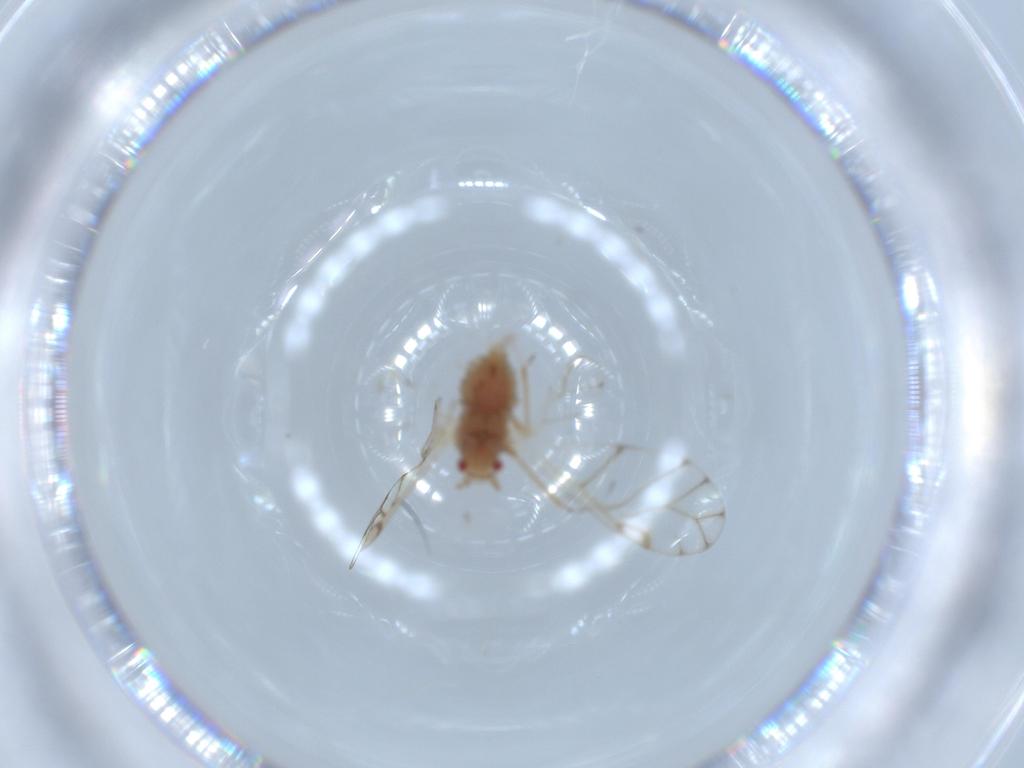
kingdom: Animalia
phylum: Arthropoda
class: Insecta
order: Hemiptera
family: Aphididae
